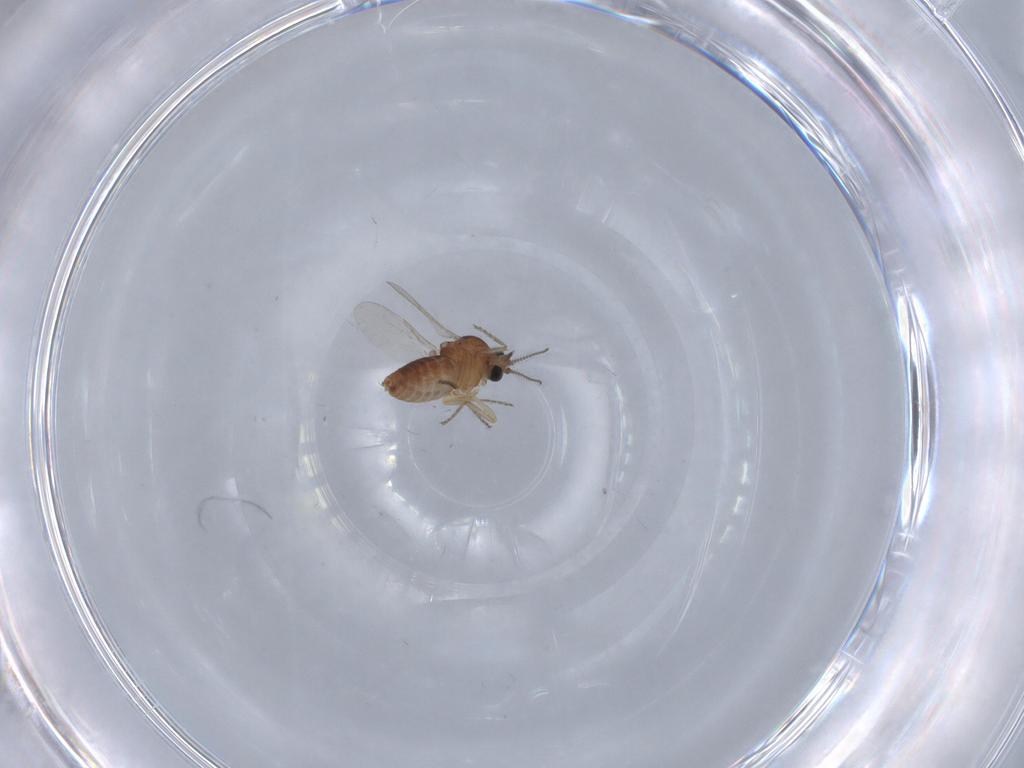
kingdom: Animalia
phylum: Arthropoda
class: Insecta
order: Diptera
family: Ceratopogonidae
